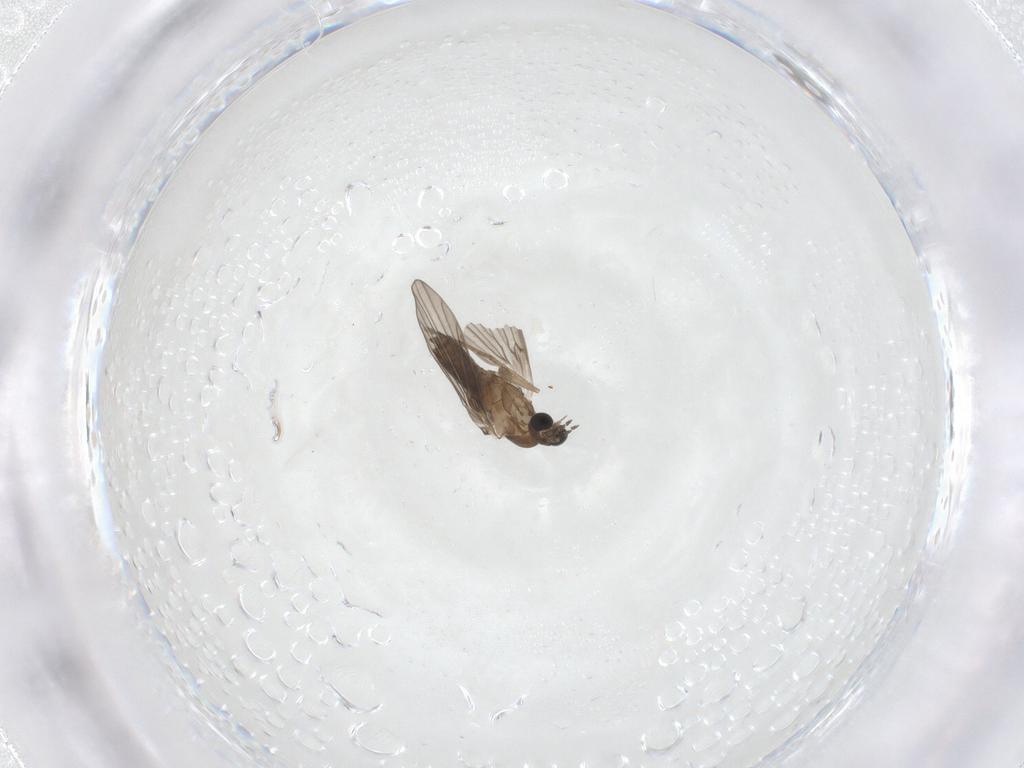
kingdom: Animalia
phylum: Arthropoda
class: Insecta
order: Diptera
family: Psychodidae
